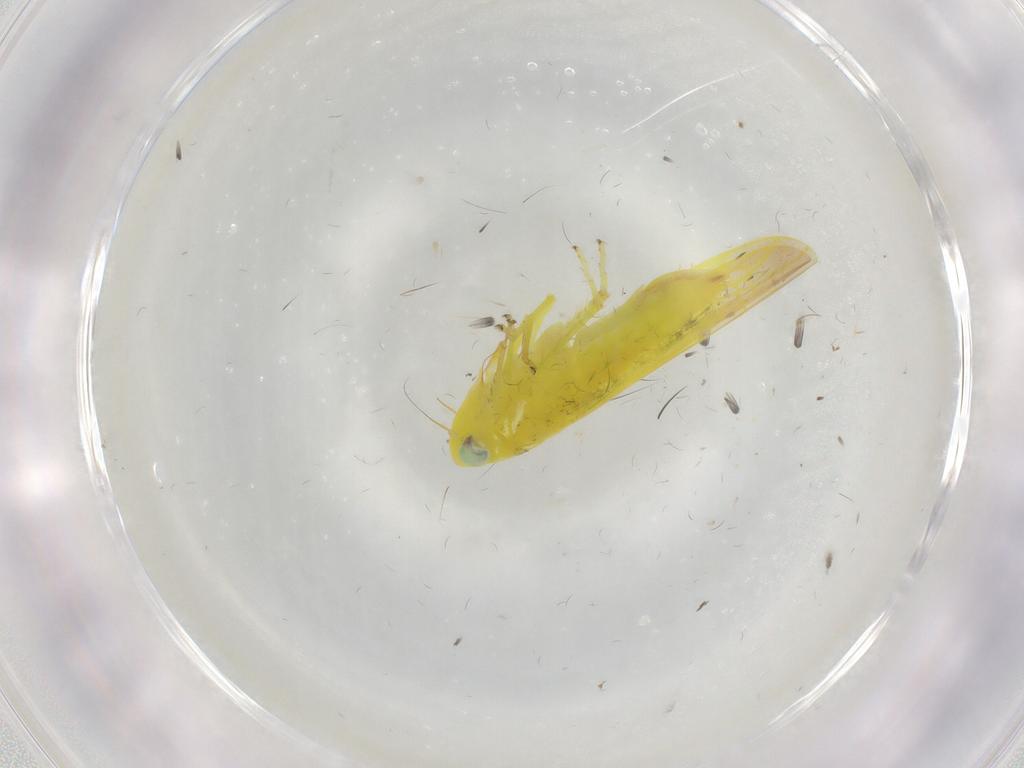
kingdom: Animalia
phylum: Arthropoda
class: Insecta
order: Hemiptera
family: Cicadellidae
